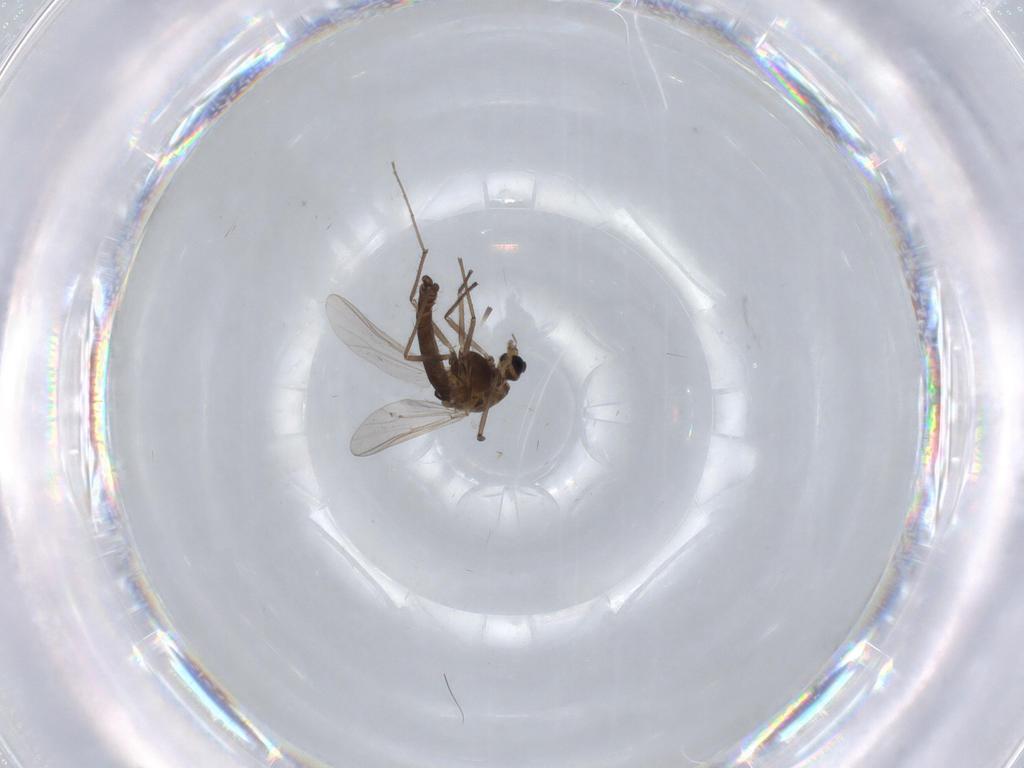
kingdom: Animalia
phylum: Arthropoda
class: Insecta
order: Diptera
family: Chironomidae
